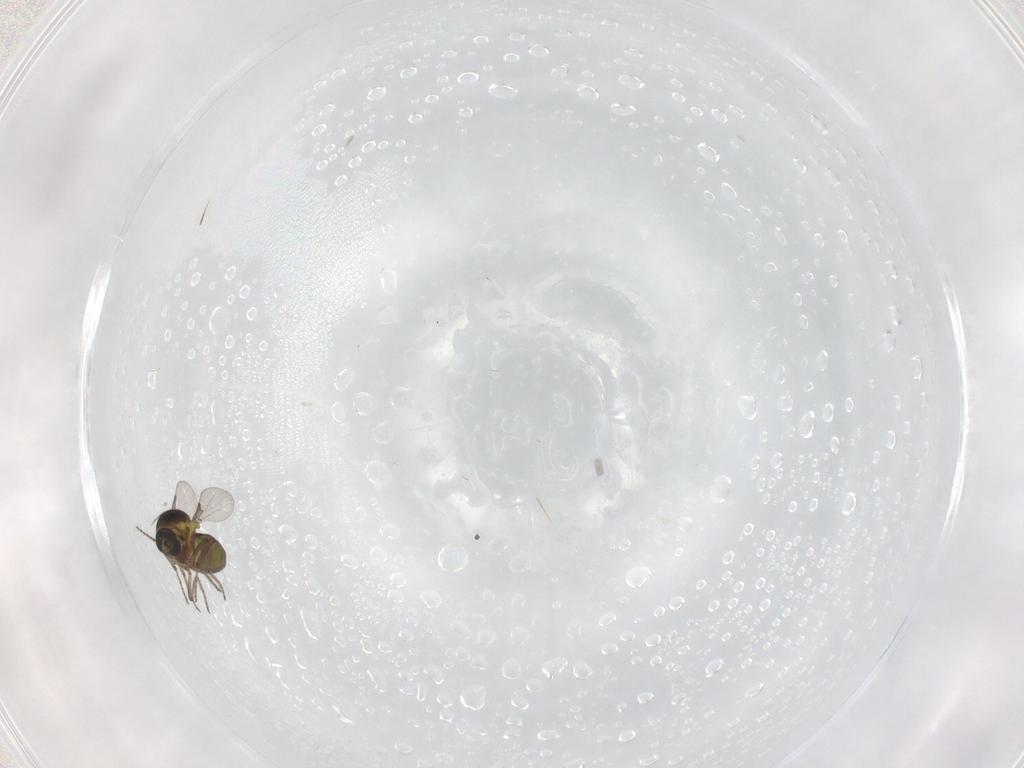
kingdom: Animalia
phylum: Arthropoda
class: Insecta
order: Diptera
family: Ceratopogonidae
